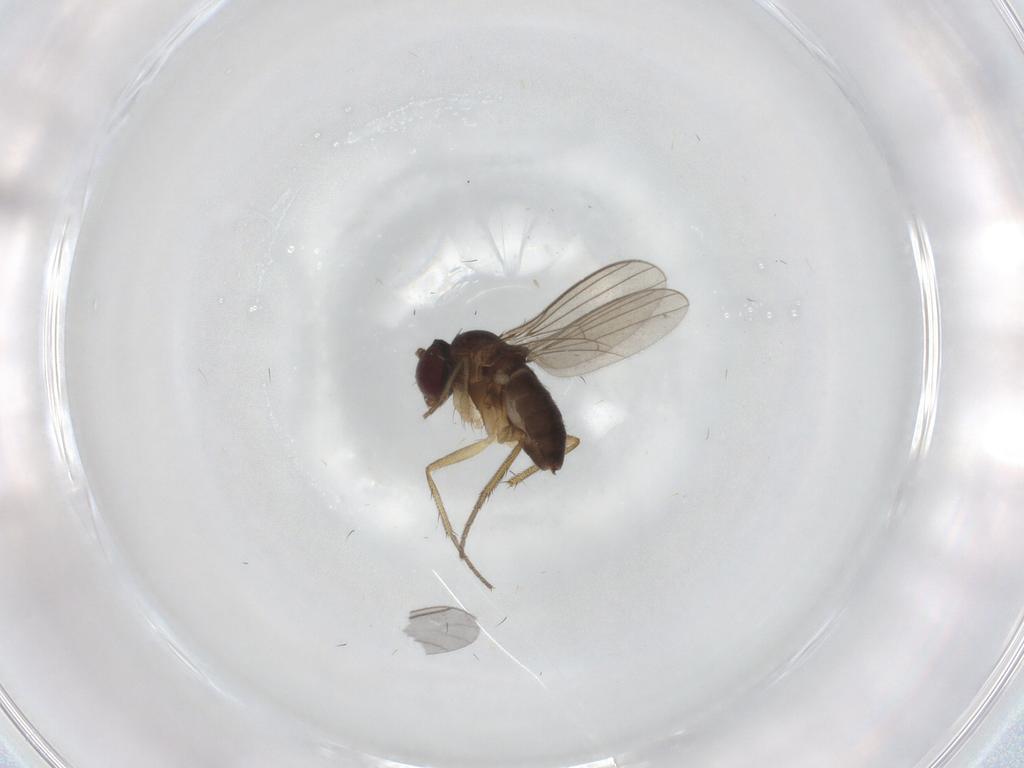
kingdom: Animalia
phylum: Arthropoda
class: Insecta
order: Diptera
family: Dolichopodidae
